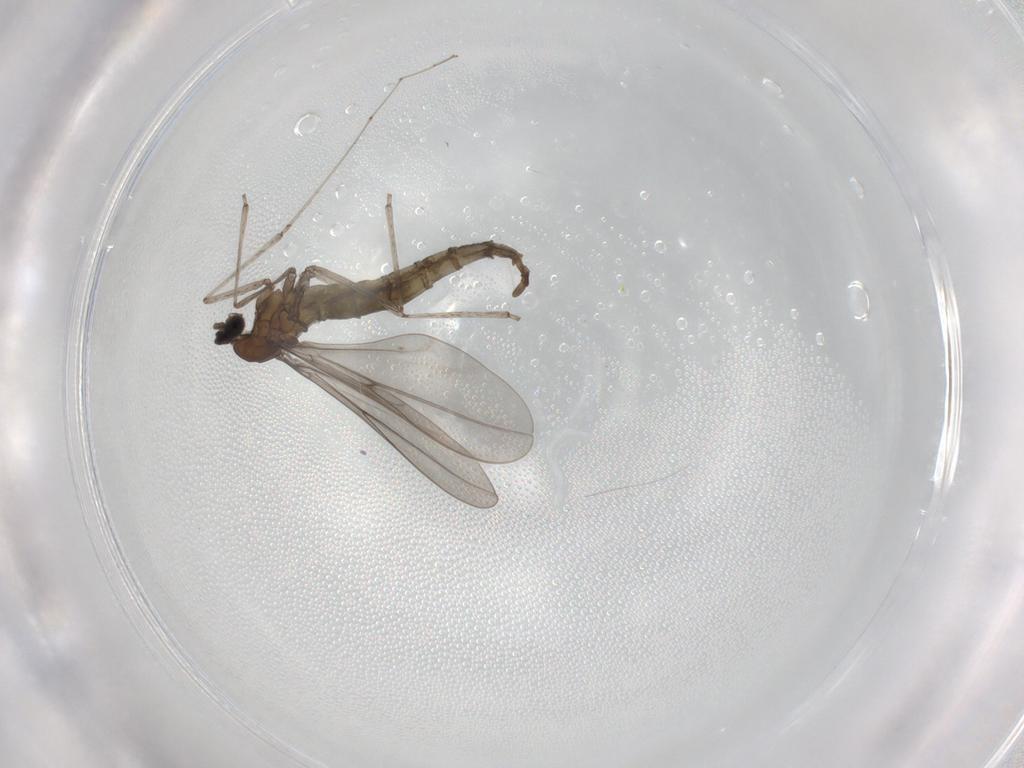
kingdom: Animalia
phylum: Arthropoda
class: Insecta
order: Diptera
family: Cecidomyiidae
